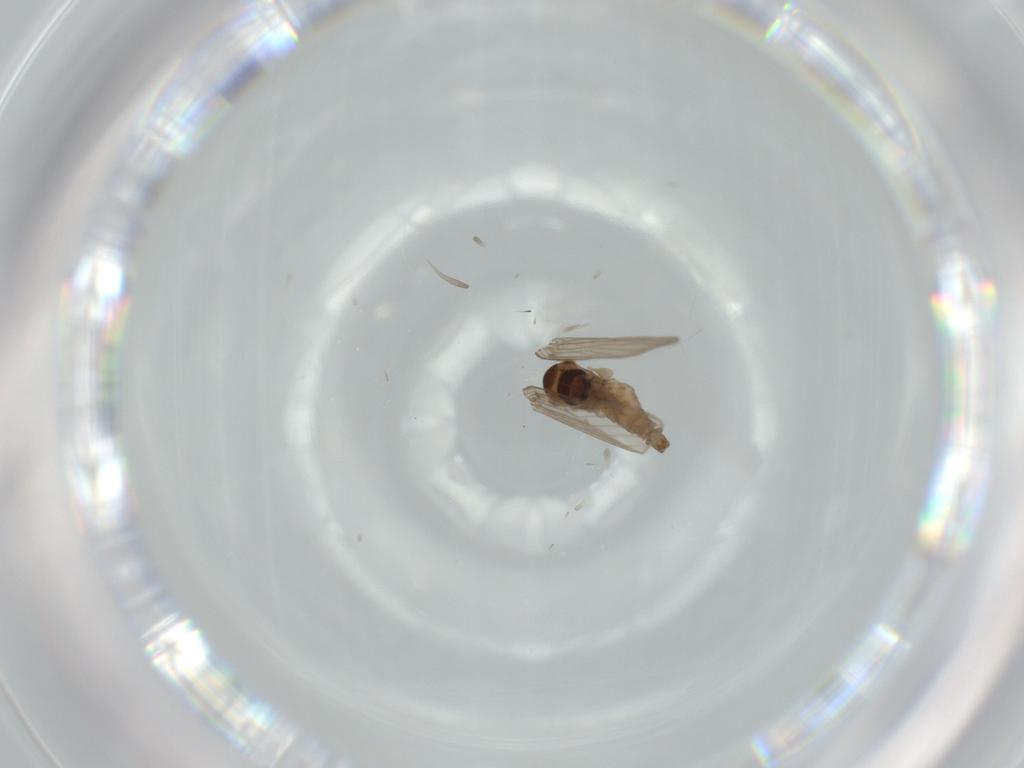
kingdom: Animalia
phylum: Arthropoda
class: Insecta
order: Diptera
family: Psychodidae
